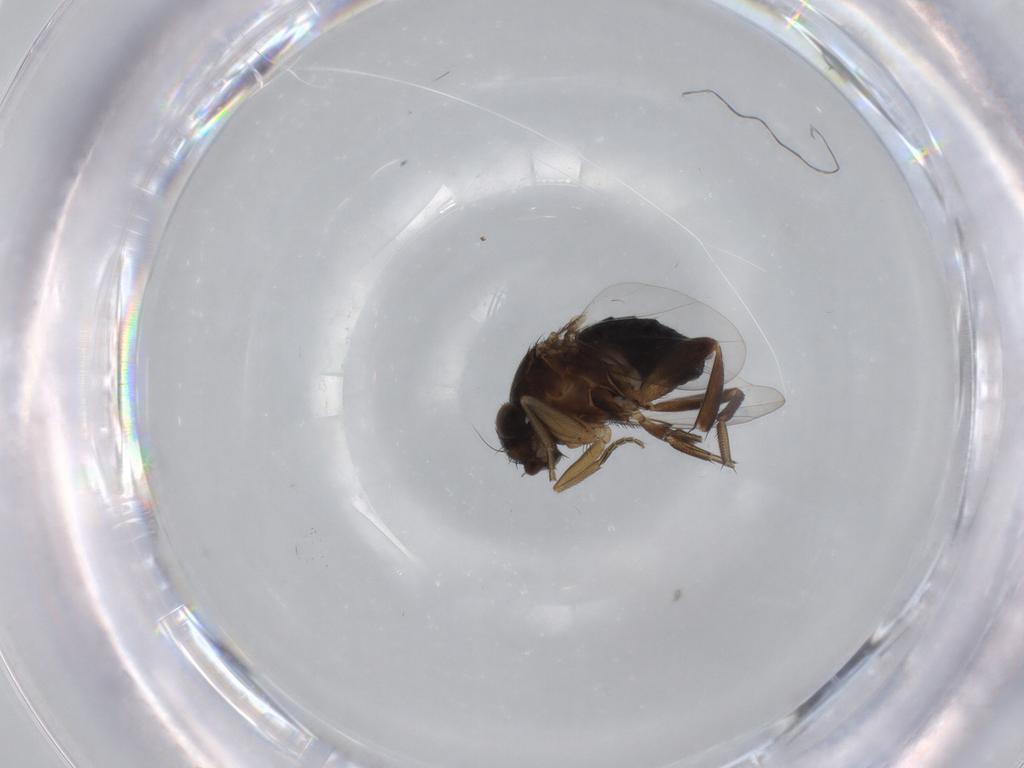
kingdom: Animalia
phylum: Arthropoda
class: Insecta
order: Diptera
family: Phoridae
